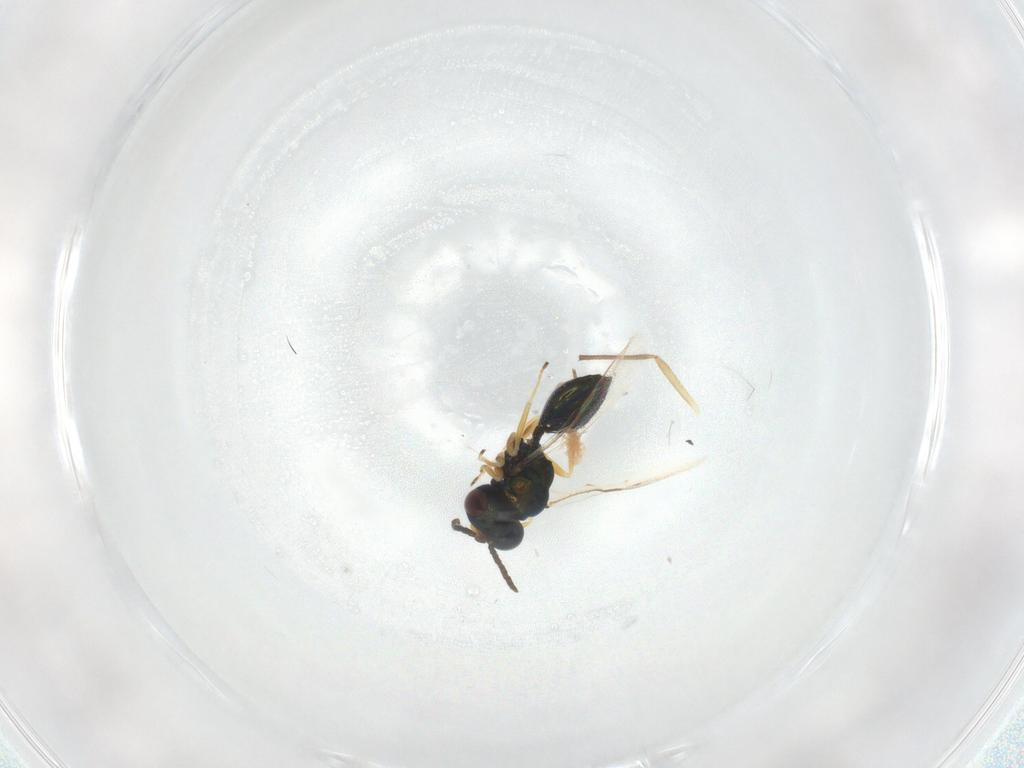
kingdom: Animalia
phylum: Arthropoda
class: Insecta
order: Hymenoptera
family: Pteromalidae
